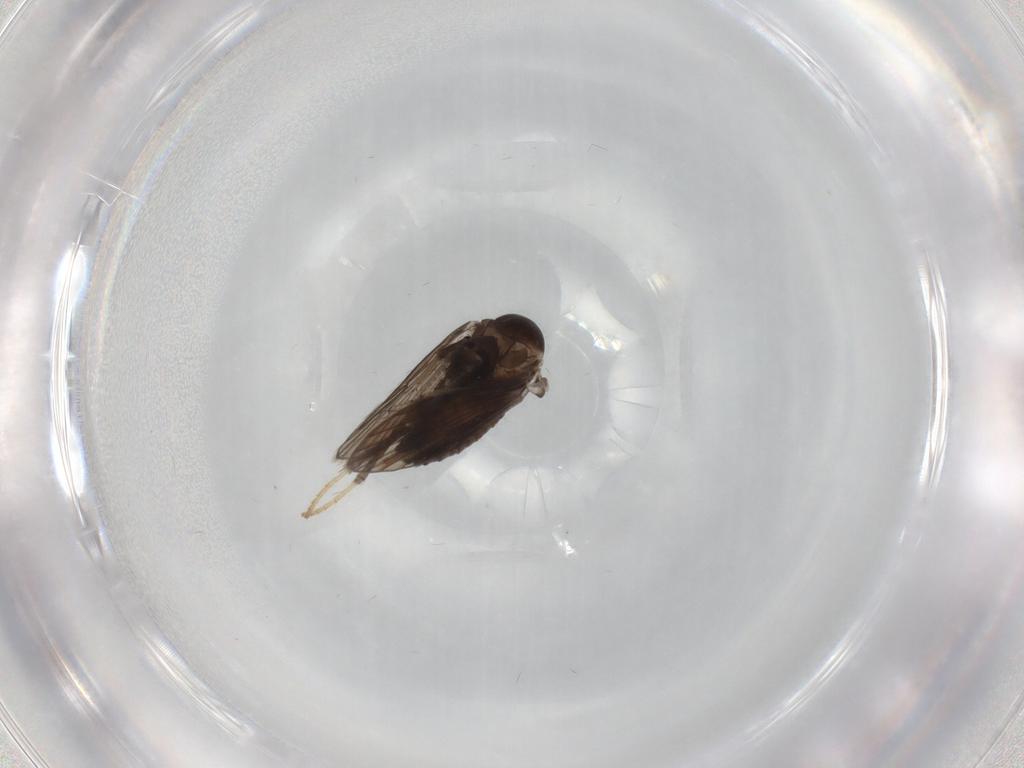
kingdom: Animalia
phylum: Arthropoda
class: Insecta
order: Diptera
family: Psychodidae
